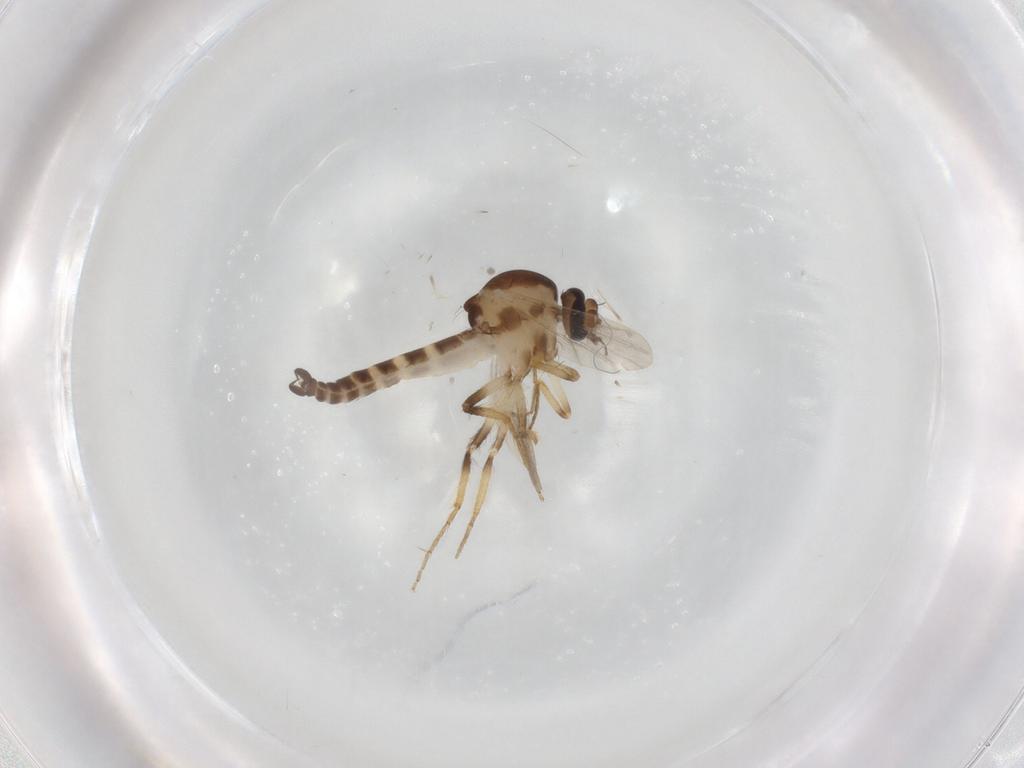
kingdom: Animalia
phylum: Arthropoda
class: Insecta
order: Diptera
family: Ceratopogonidae
